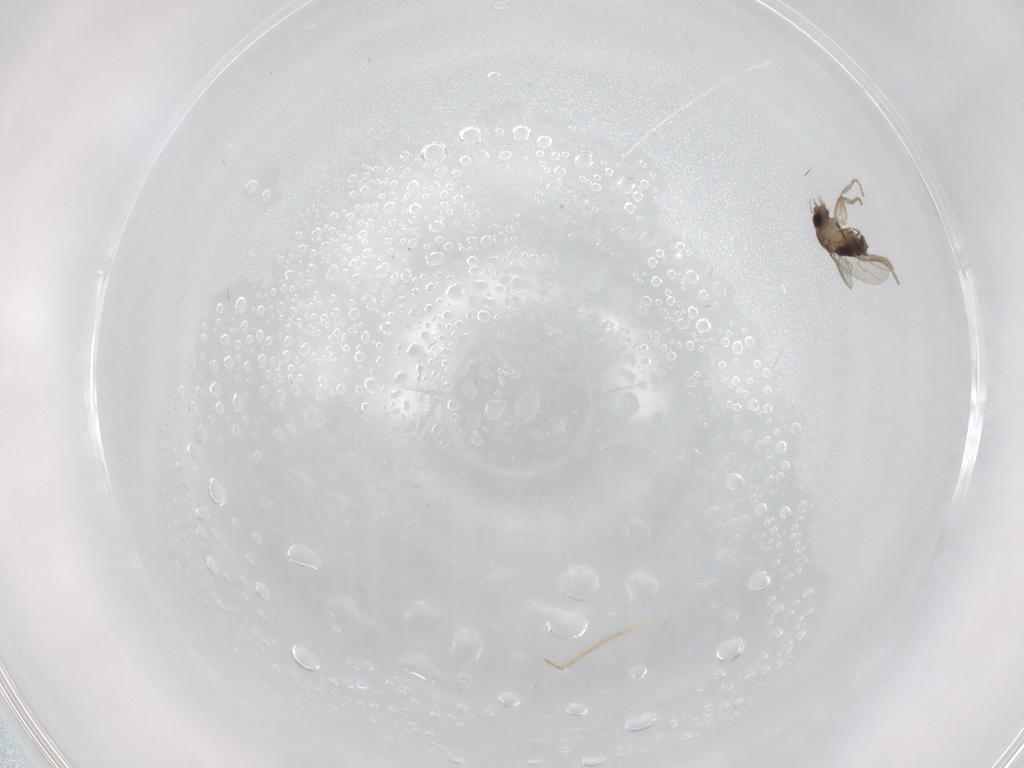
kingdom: Animalia
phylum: Arthropoda
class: Insecta
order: Diptera
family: Phoridae
